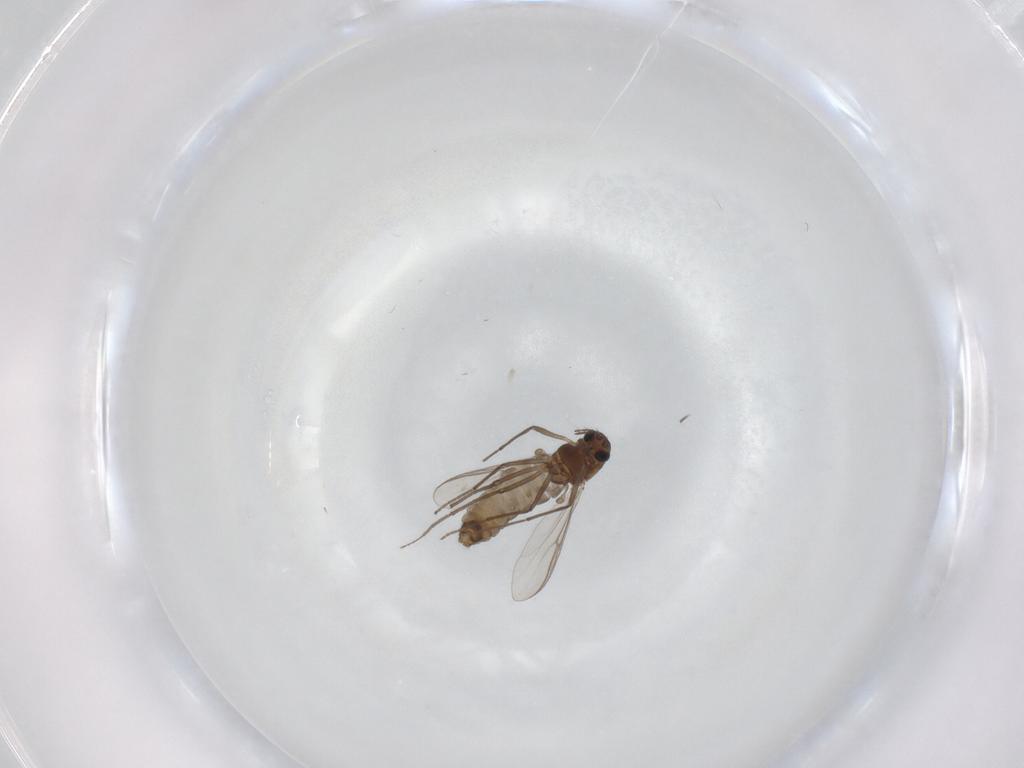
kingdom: Animalia
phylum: Arthropoda
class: Insecta
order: Diptera
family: Chironomidae
